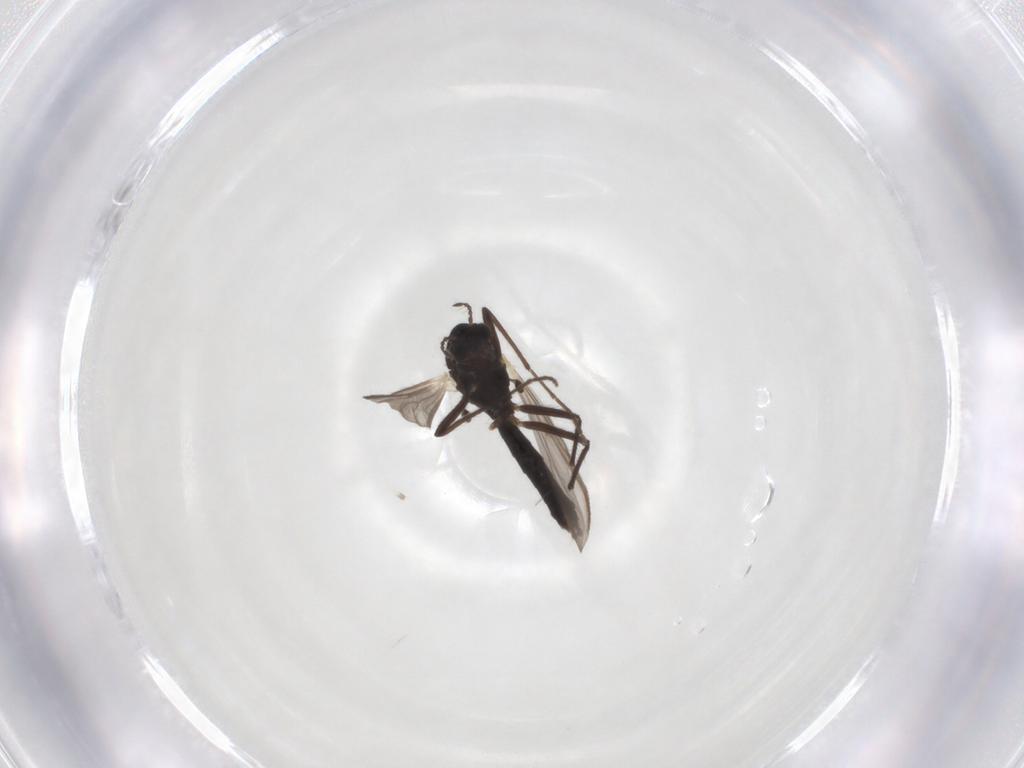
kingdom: Animalia
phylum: Arthropoda
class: Insecta
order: Diptera
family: Chironomidae
